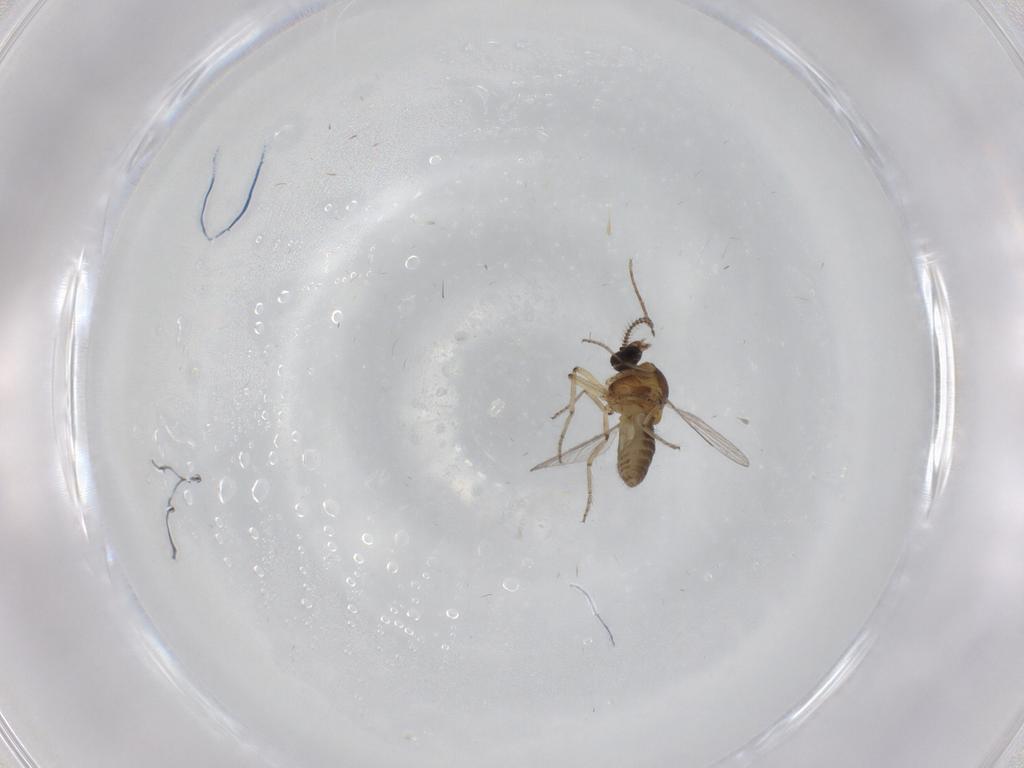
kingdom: Animalia
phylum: Arthropoda
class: Insecta
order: Diptera
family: Ceratopogonidae
